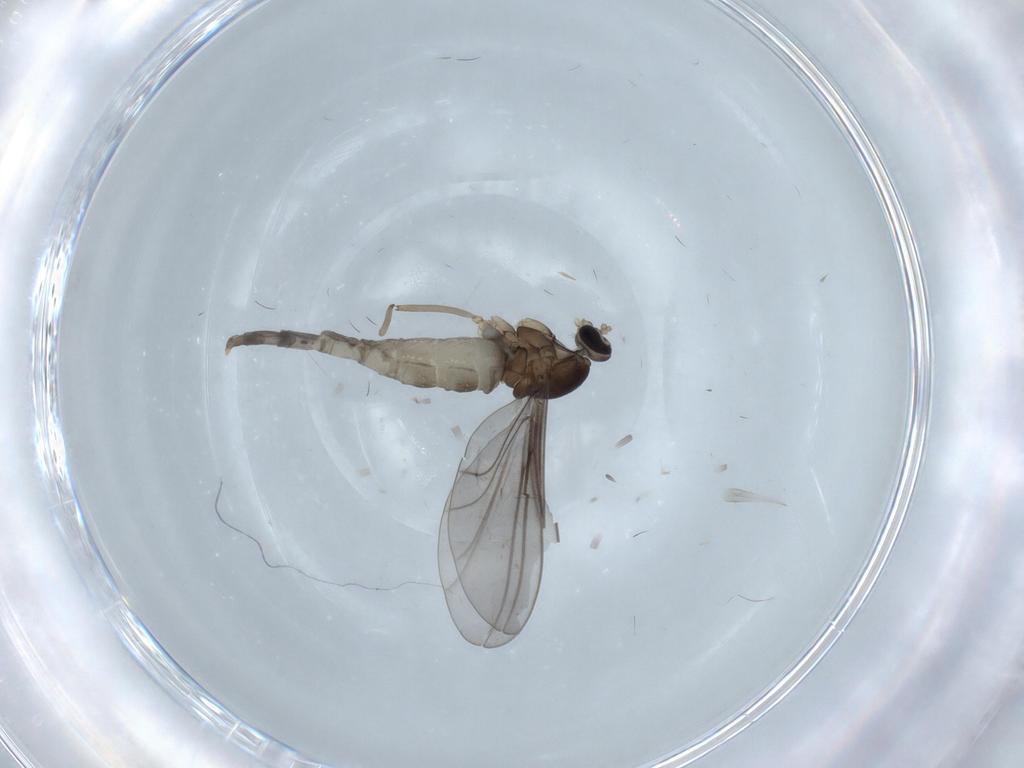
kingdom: Animalia
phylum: Arthropoda
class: Insecta
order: Diptera
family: Cecidomyiidae
